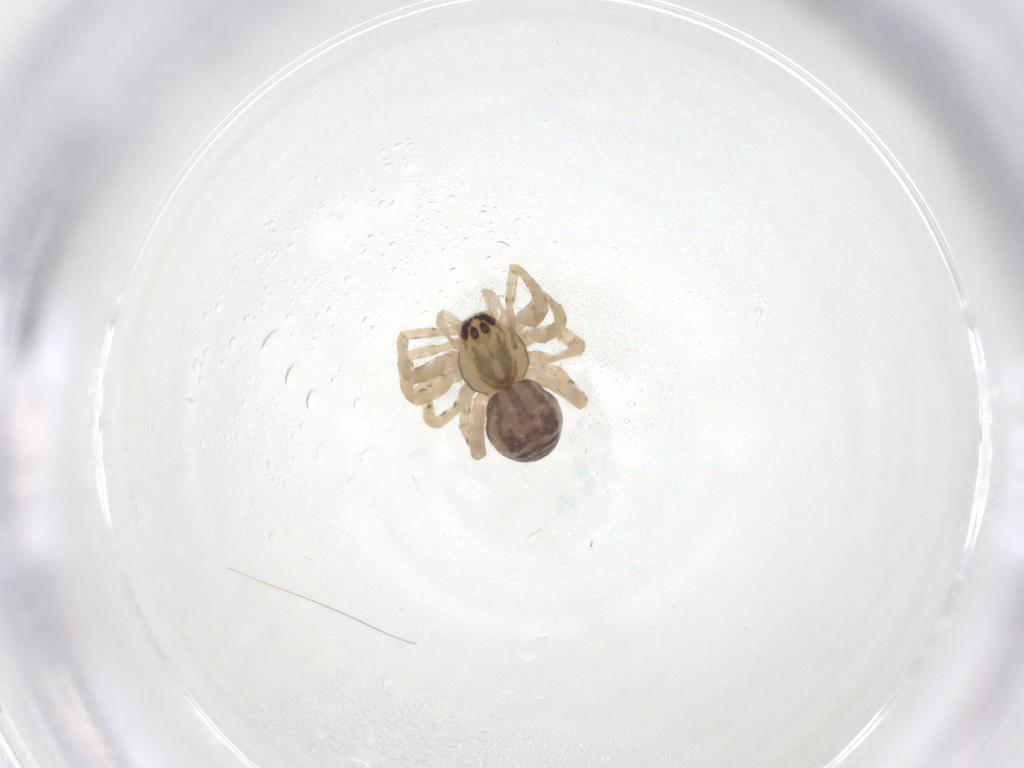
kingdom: Animalia
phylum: Arthropoda
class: Arachnida
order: Araneae
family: Amaurobiidae
